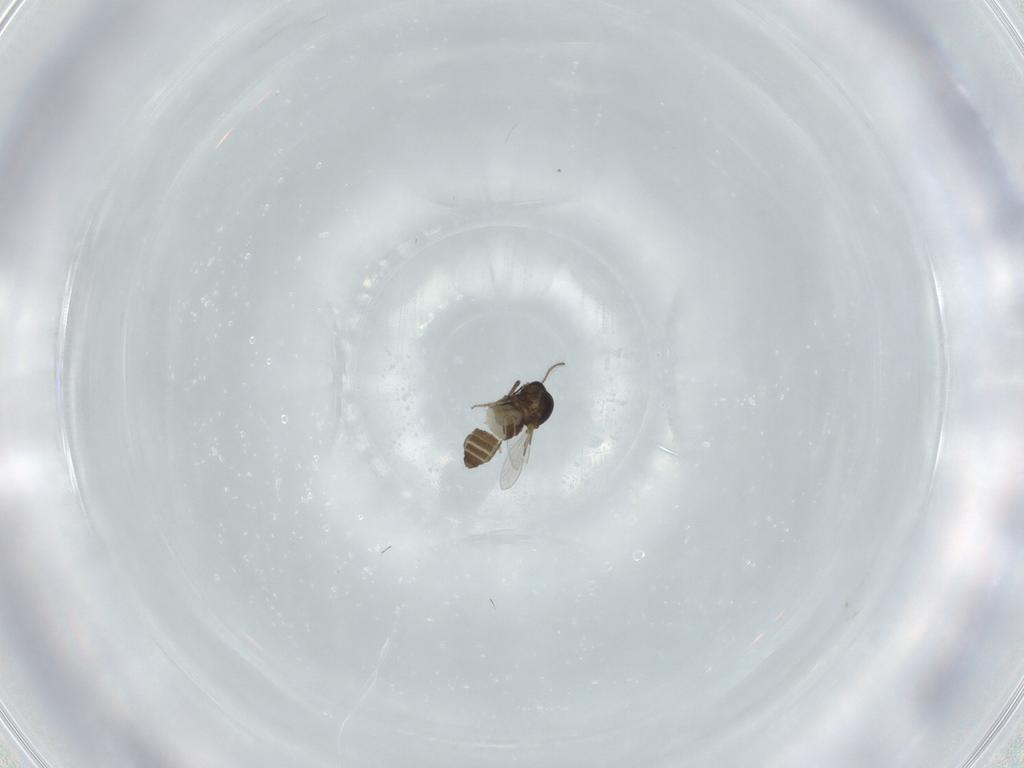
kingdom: Animalia
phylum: Arthropoda
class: Insecta
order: Diptera
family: Ceratopogonidae
